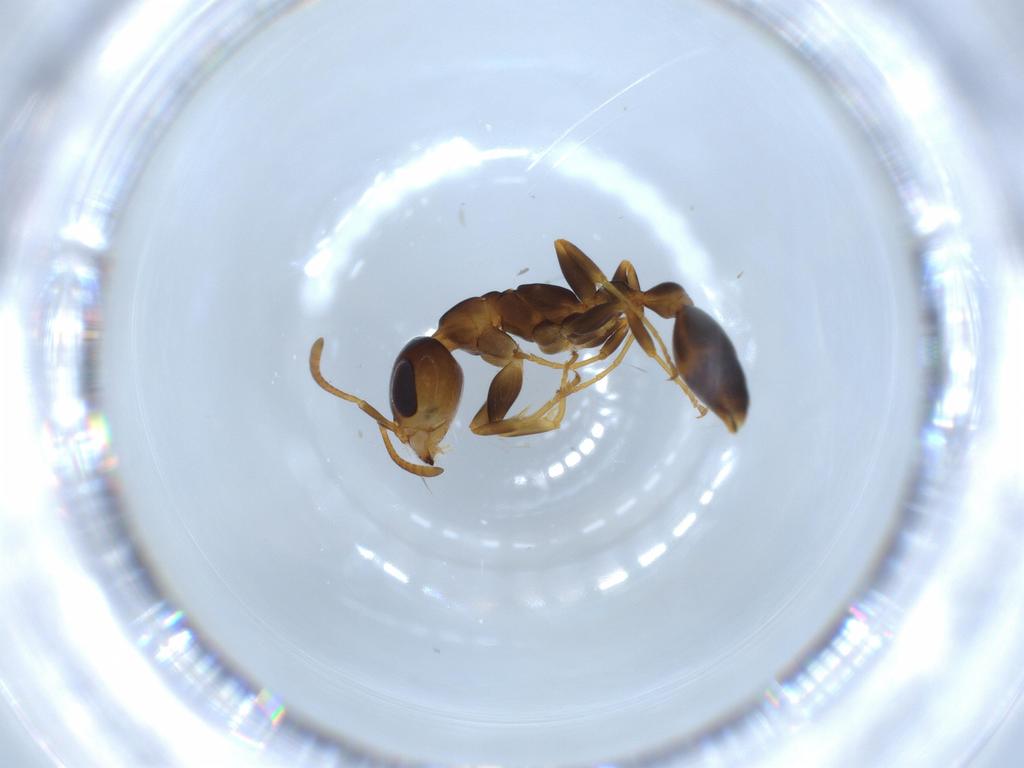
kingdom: Animalia
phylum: Arthropoda
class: Insecta
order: Hymenoptera
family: Formicidae
